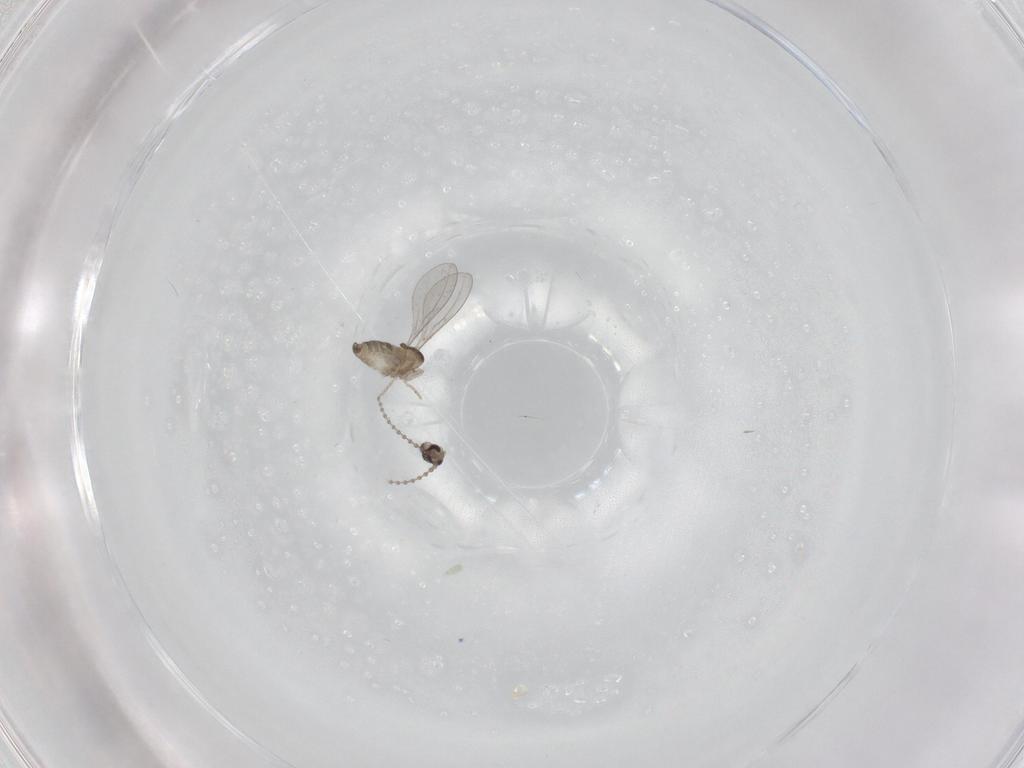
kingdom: Animalia
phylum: Arthropoda
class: Insecta
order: Diptera
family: Cecidomyiidae
